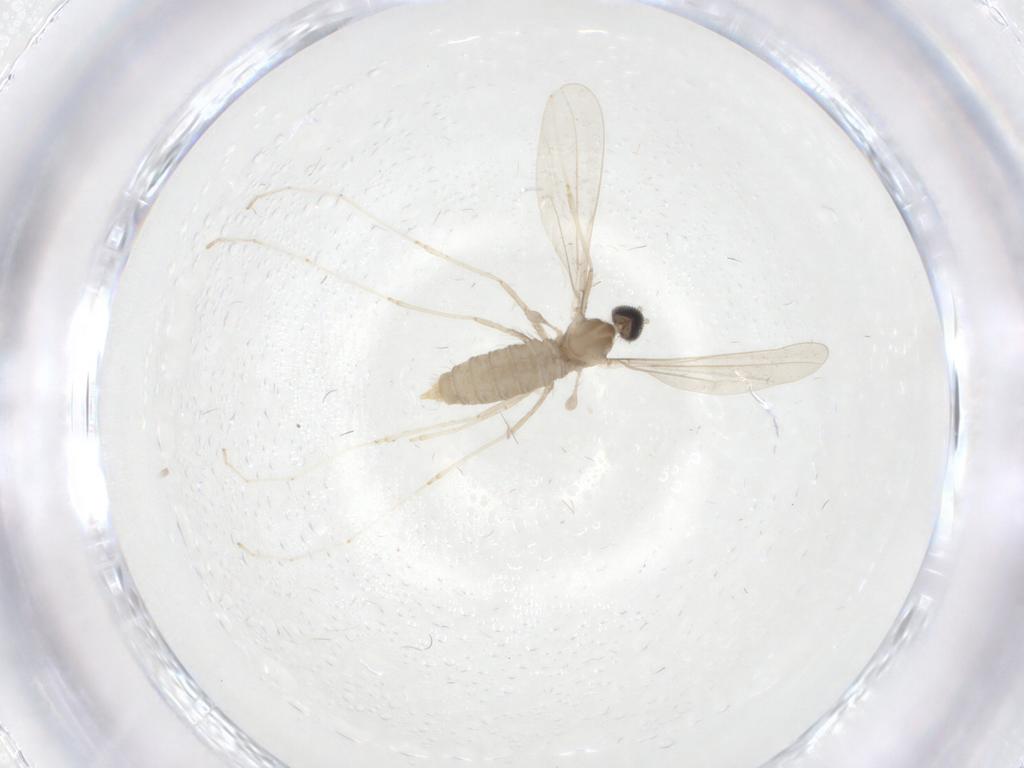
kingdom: Animalia
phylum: Arthropoda
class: Insecta
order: Diptera
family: Cecidomyiidae
